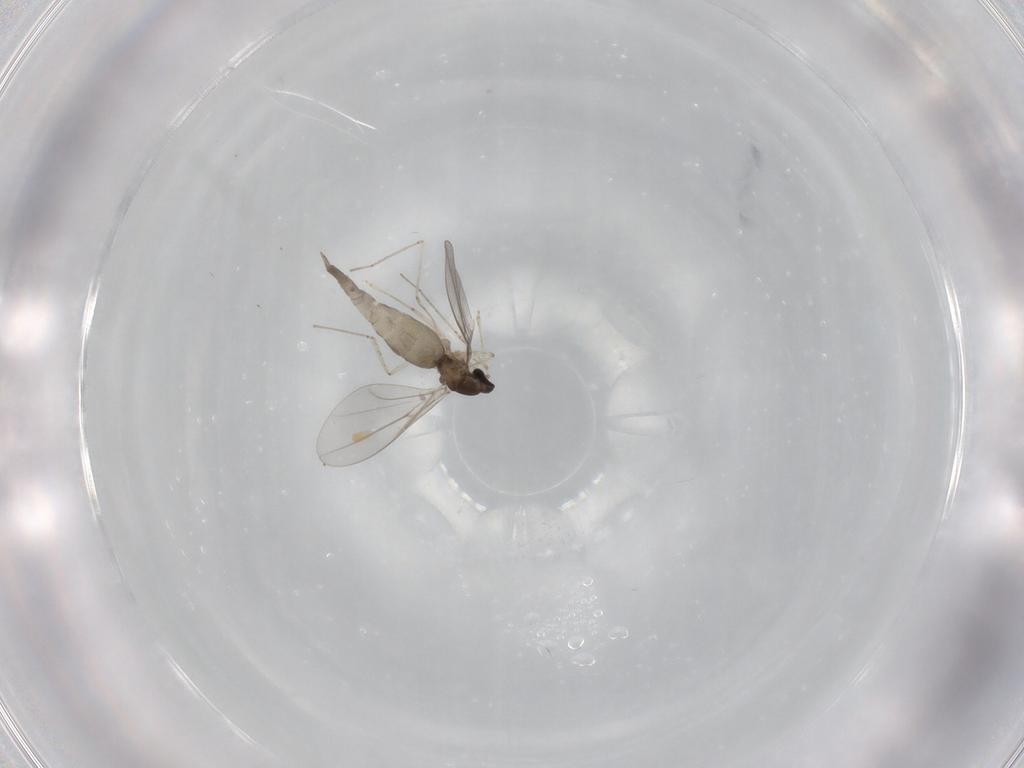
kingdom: Animalia
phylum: Arthropoda
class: Insecta
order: Diptera
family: Cecidomyiidae
